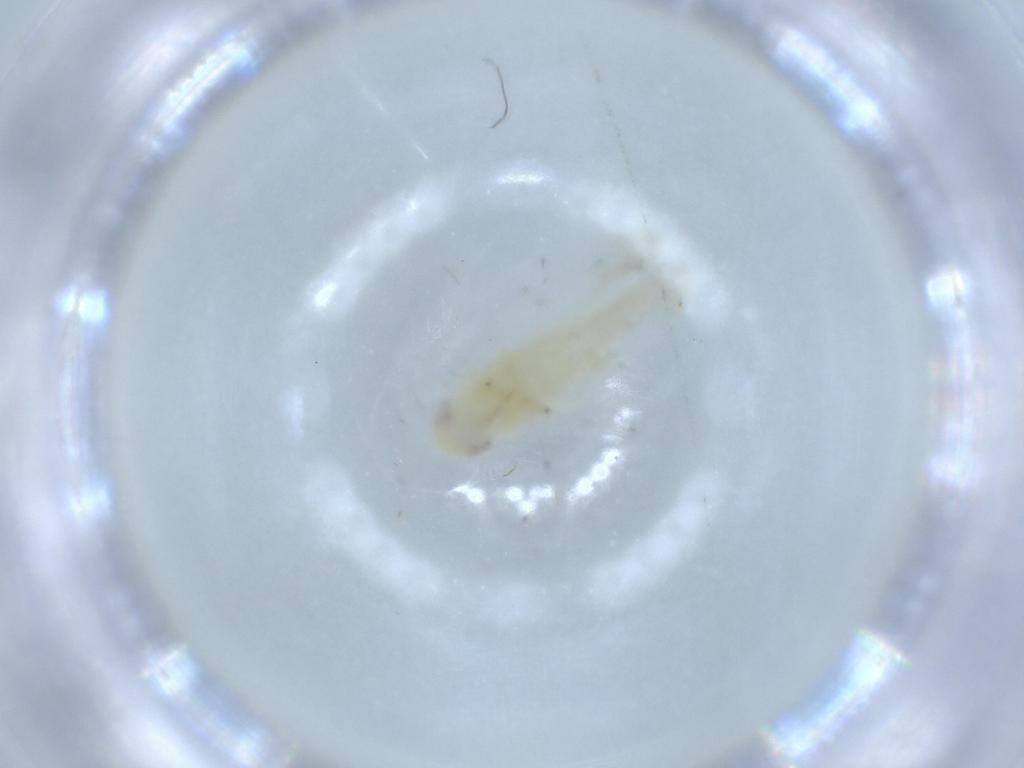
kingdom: Animalia
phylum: Arthropoda
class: Insecta
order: Hemiptera
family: Cicadellidae
